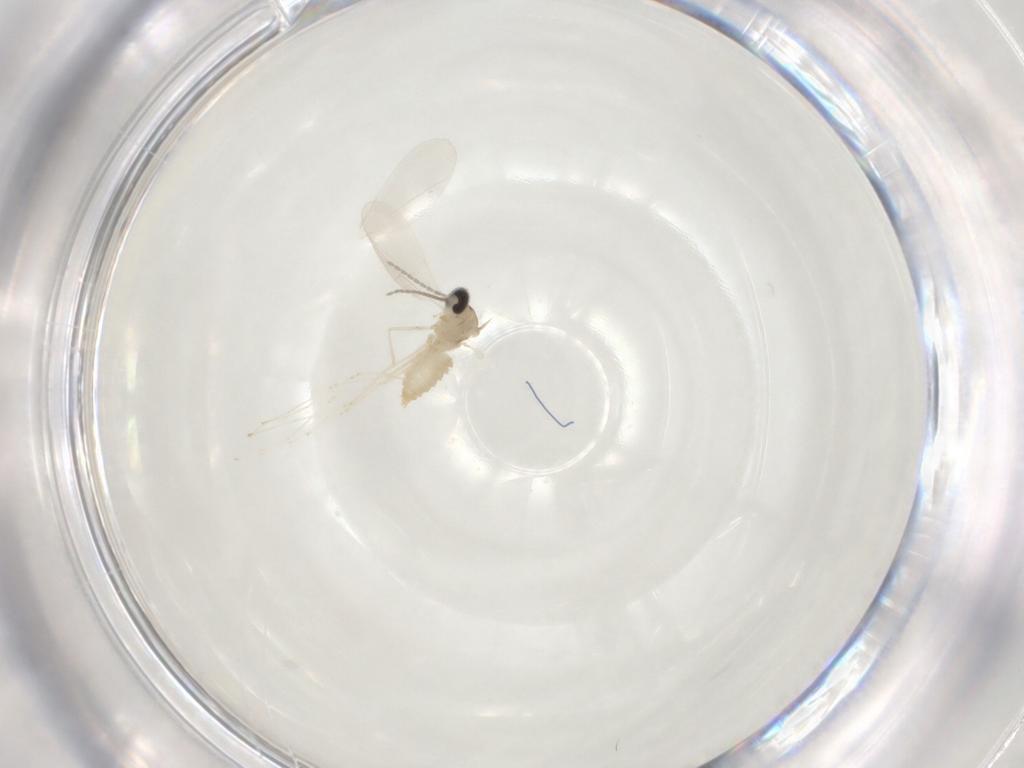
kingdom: Animalia
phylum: Arthropoda
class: Insecta
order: Diptera
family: Cecidomyiidae
